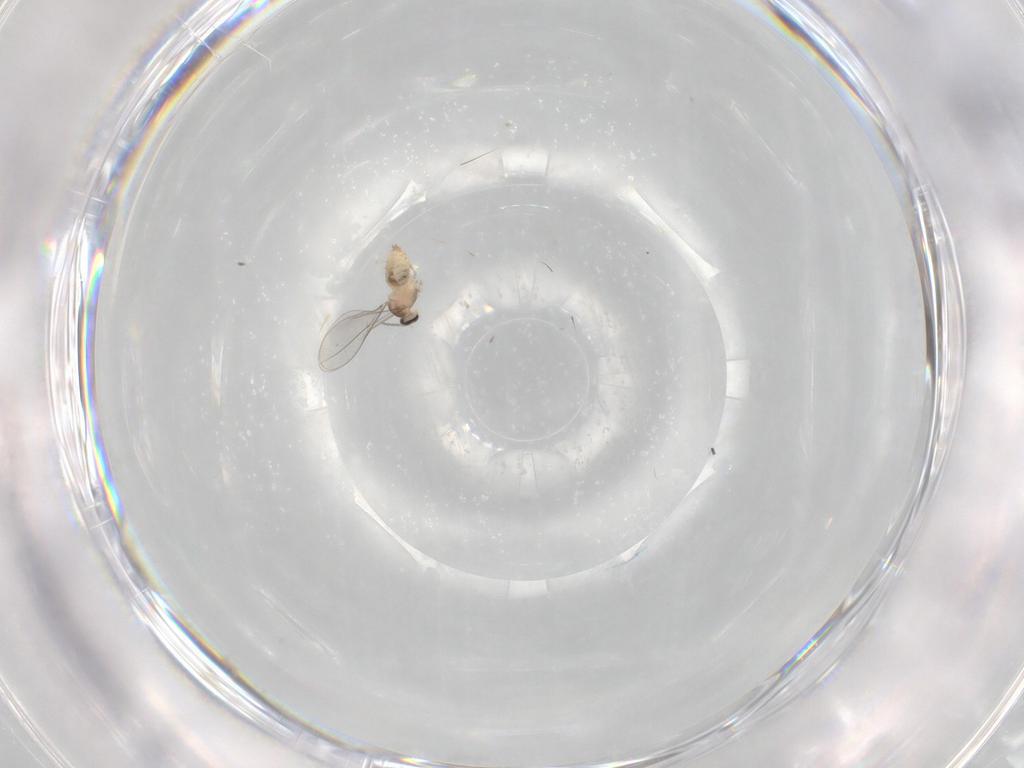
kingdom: Animalia
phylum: Arthropoda
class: Insecta
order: Diptera
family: Cecidomyiidae
